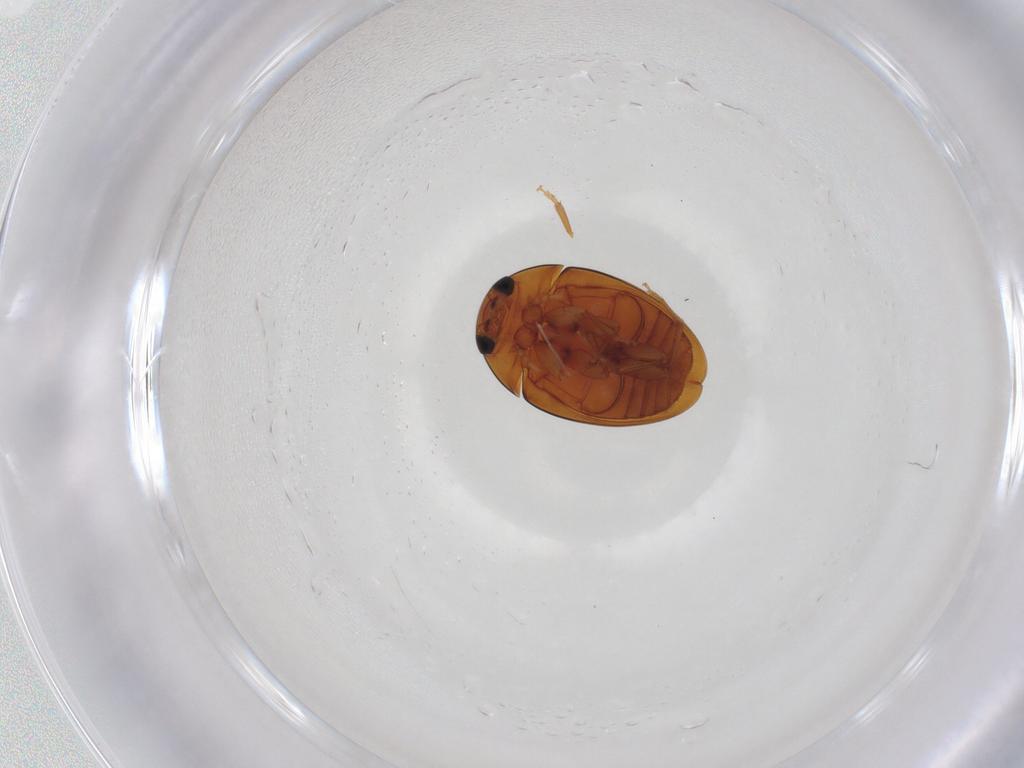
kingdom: Animalia
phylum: Arthropoda
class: Insecta
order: Coleoptera
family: Phalacridae
